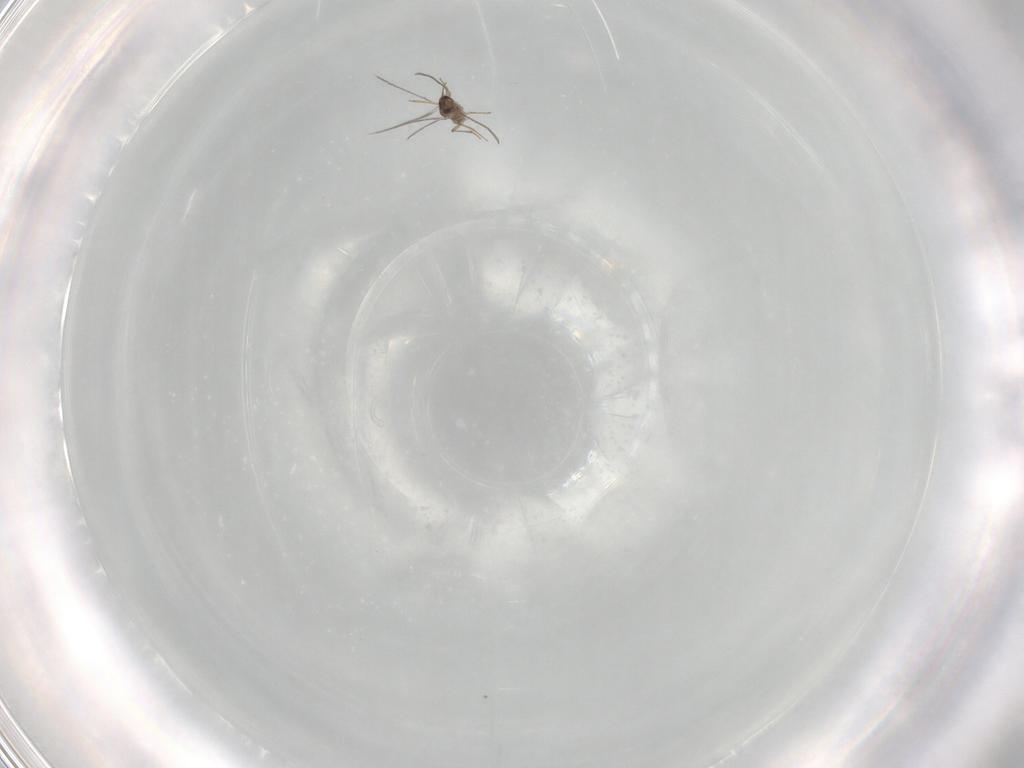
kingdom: Animalia
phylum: Arthropoda
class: Insecta
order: Hymenoptera
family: Mymaridae
